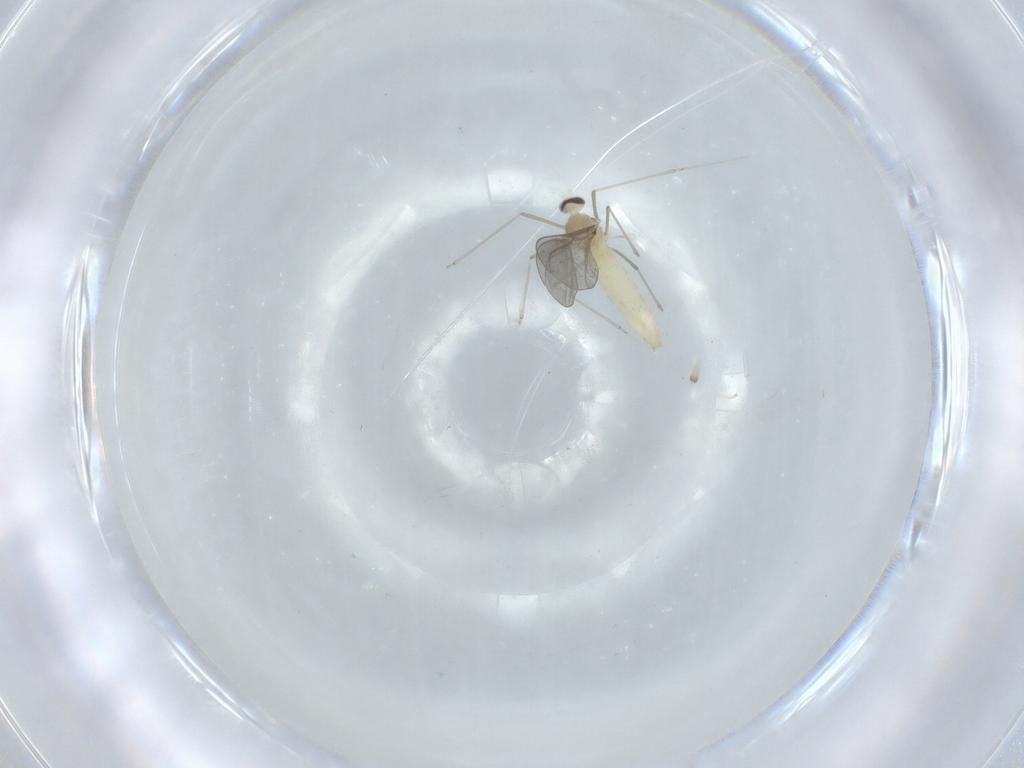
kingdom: Animalia
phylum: Arthropoda
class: Insecta
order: Diptera
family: Cecidomyiidae
